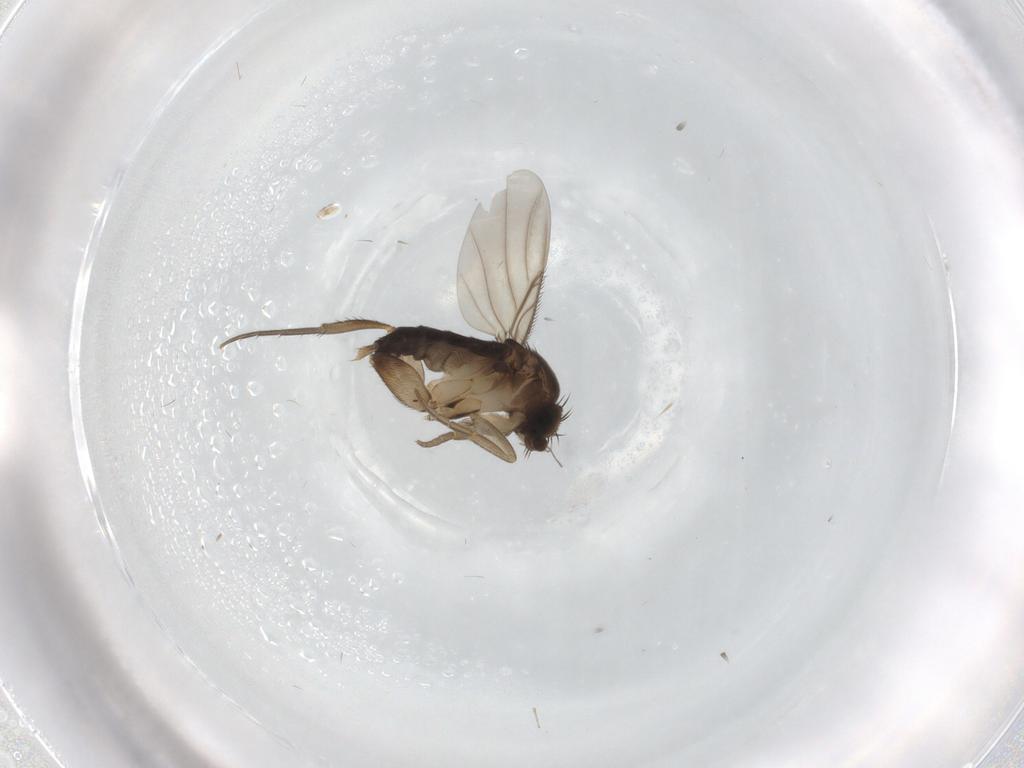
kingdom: Animalia
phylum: Arthropoda
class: Insecta
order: Diptera
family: Phoridae
